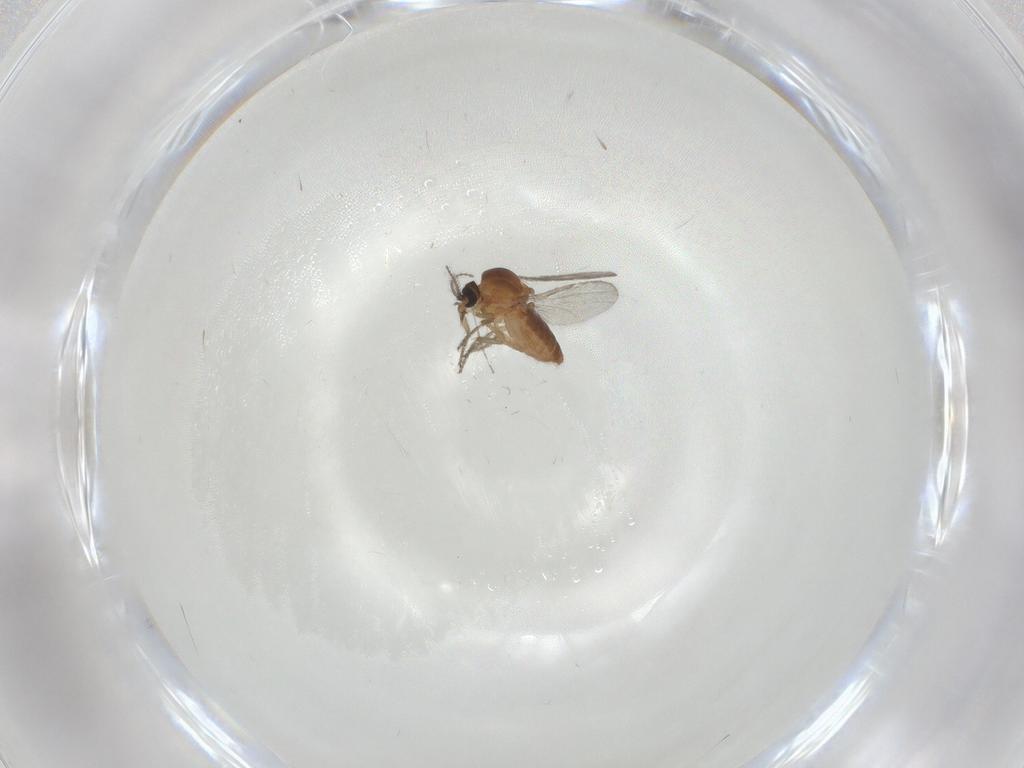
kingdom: Animalia
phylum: Arthropoda
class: Insecta
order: Diptera
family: Ceratopogonidae
